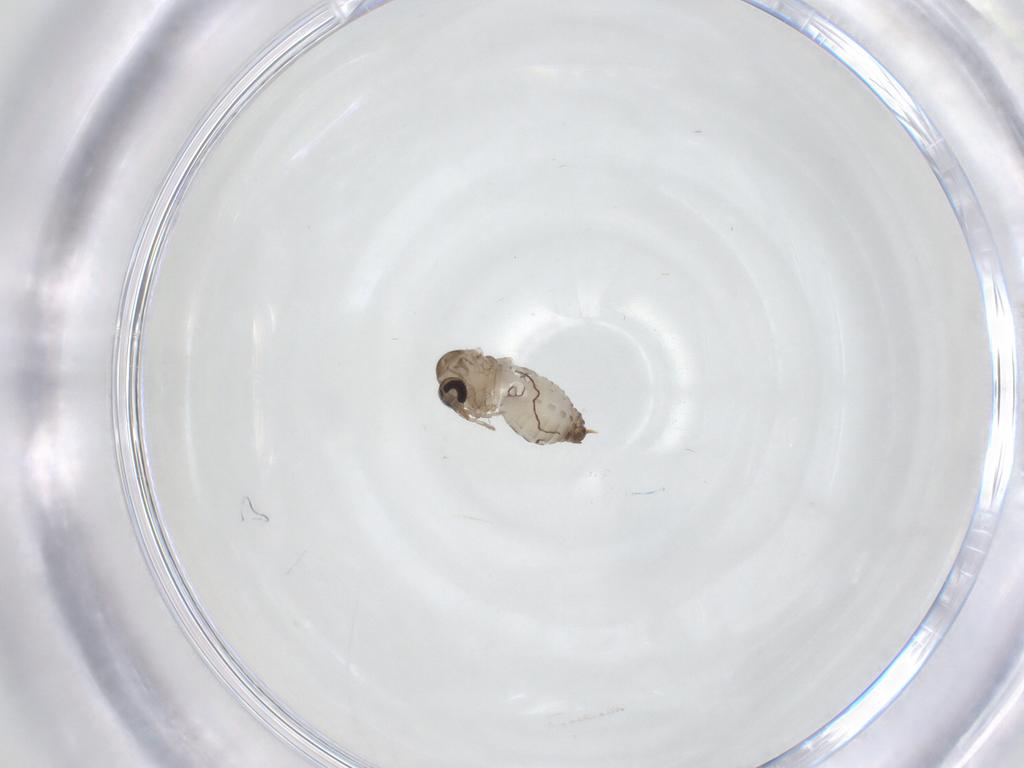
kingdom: Animalia
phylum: Arthropoda
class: Insecta
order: Diptera
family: Psychodidae
